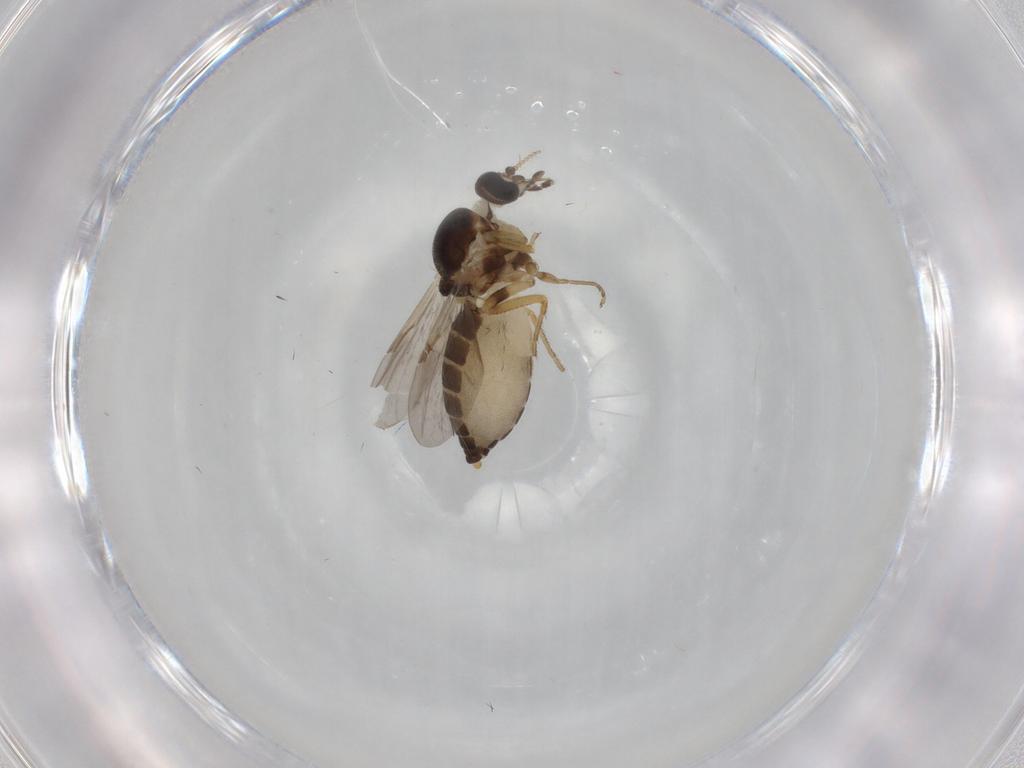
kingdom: Animalia
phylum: Arthropoda
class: Insecta
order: Diptera
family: Ceratopogonidae
